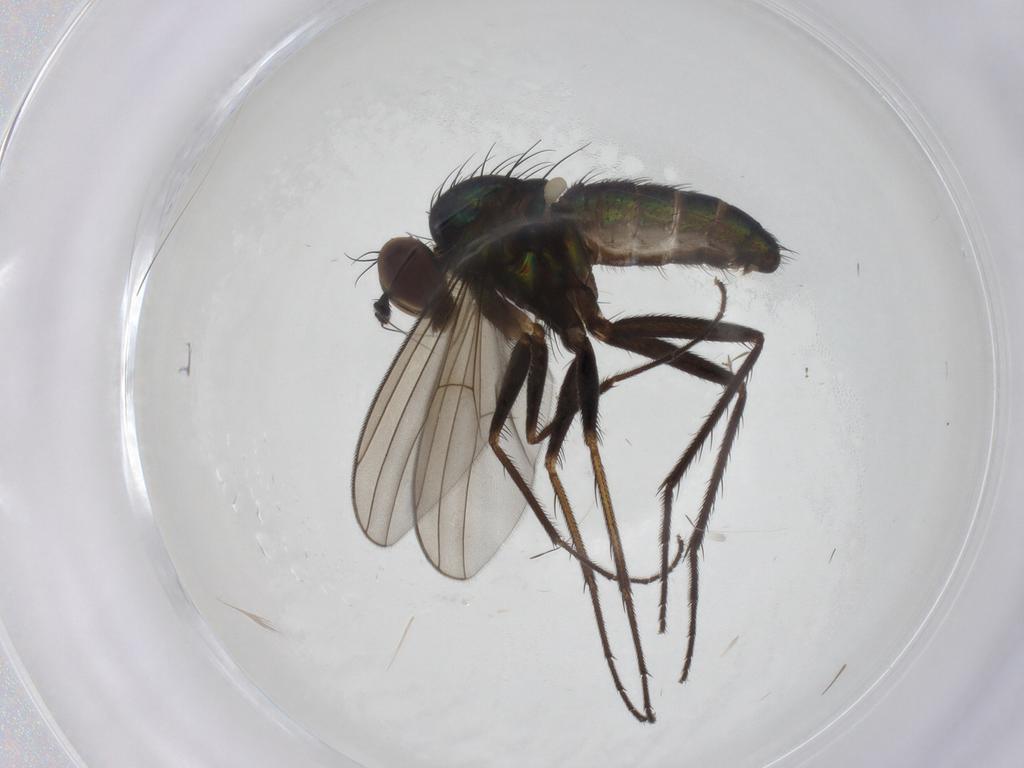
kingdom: Animalia
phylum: Arthropoda
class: Insecta
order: Diptera
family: Dolichopodidae
